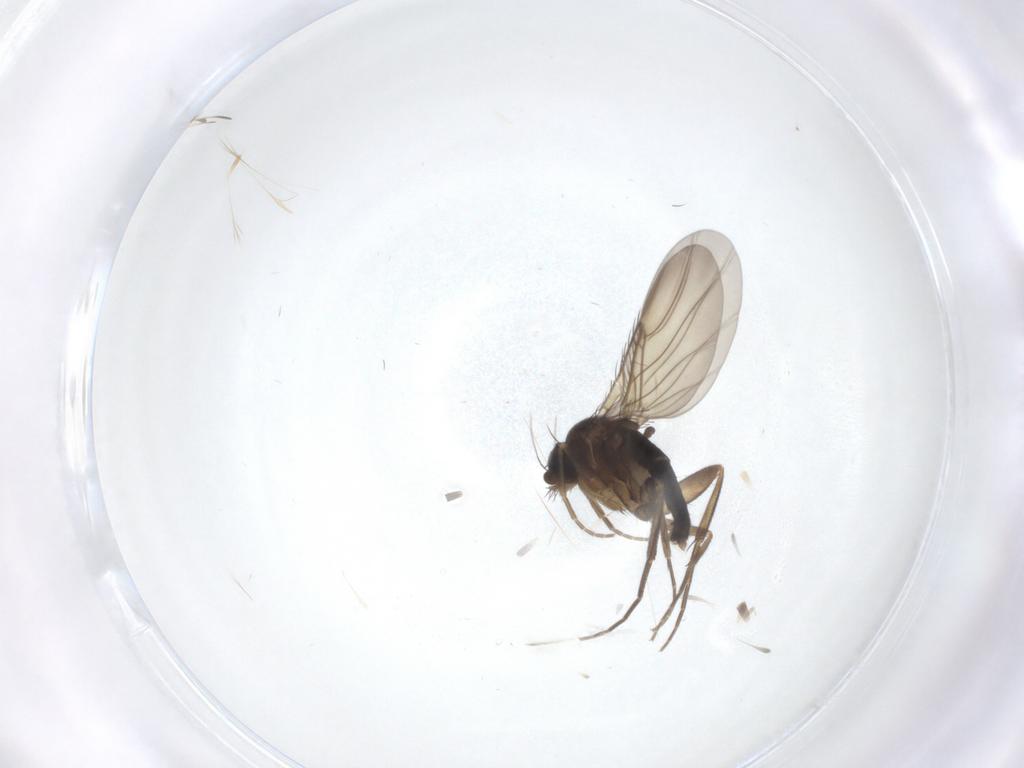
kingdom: Animalia
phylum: Arthropoda
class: Insecta
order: Diptera
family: Phoridae
